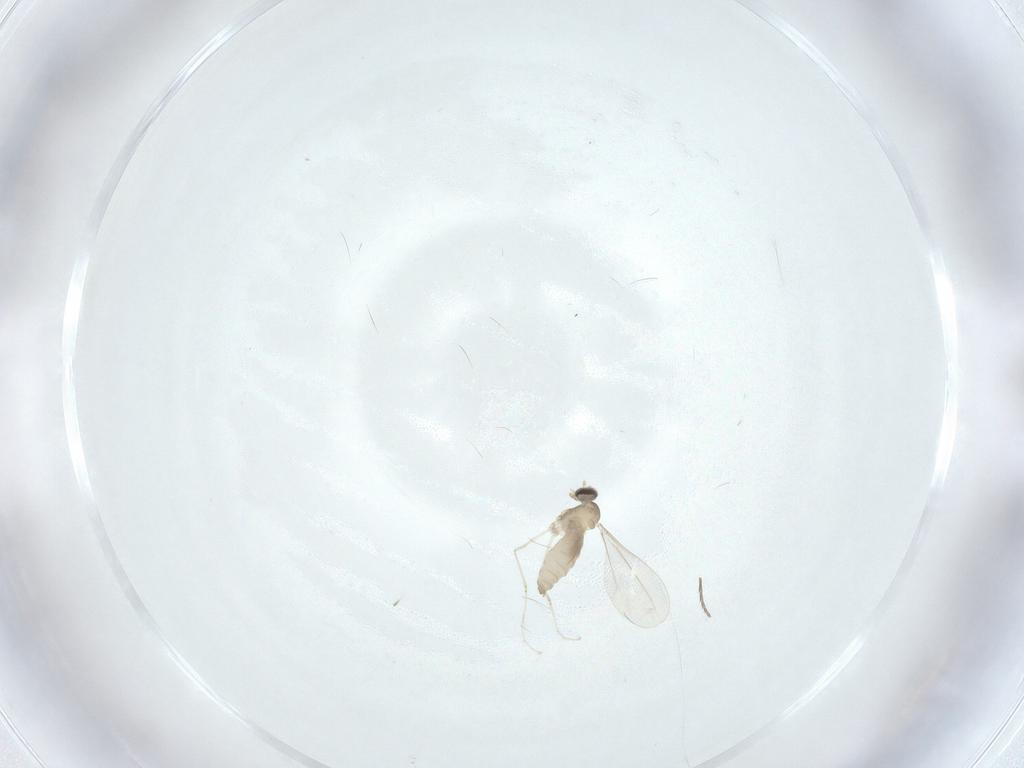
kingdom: Animalia
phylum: Arthropoda
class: Insecta
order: Diptera
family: Cecidomyiidae
